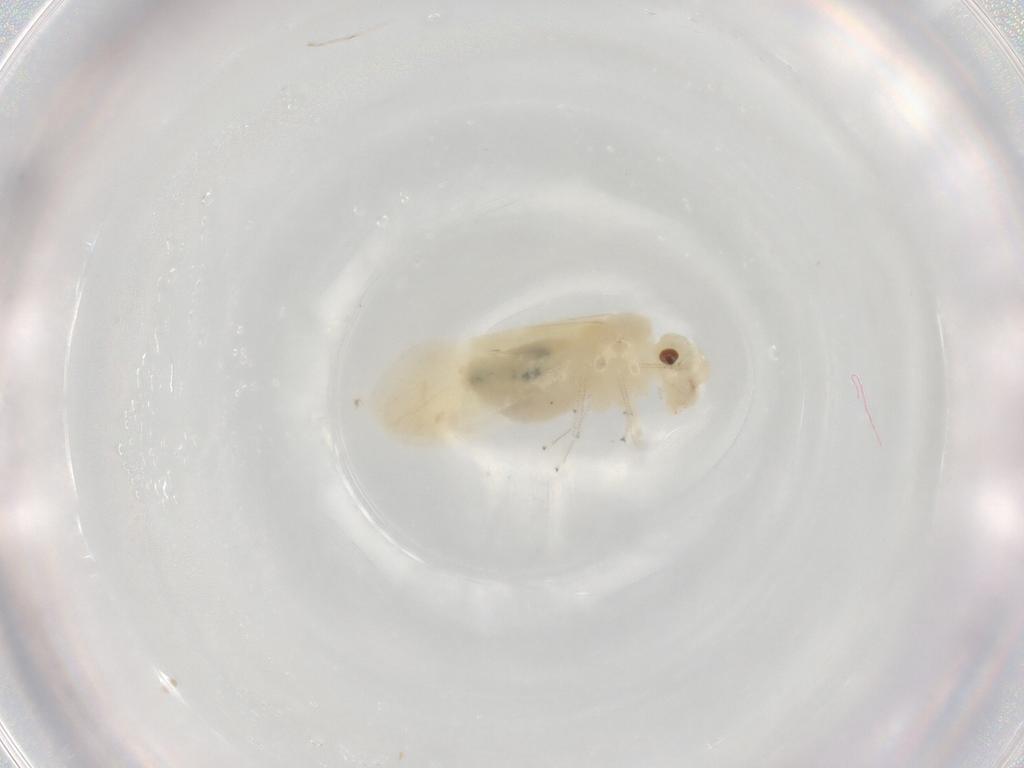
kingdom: Animalia
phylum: Arthropoda
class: Insecta
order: Psocodea
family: Caeciliusidae
